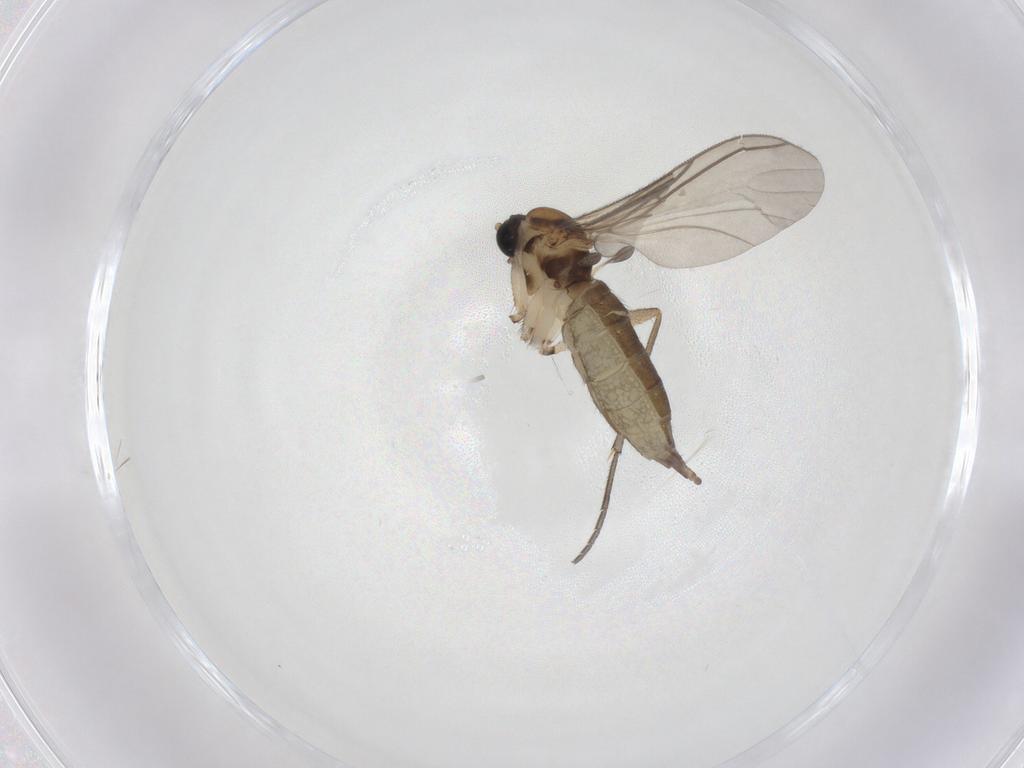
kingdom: Animalia
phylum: Arthropoda
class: Insecta
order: Diptera
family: Sciaridae
